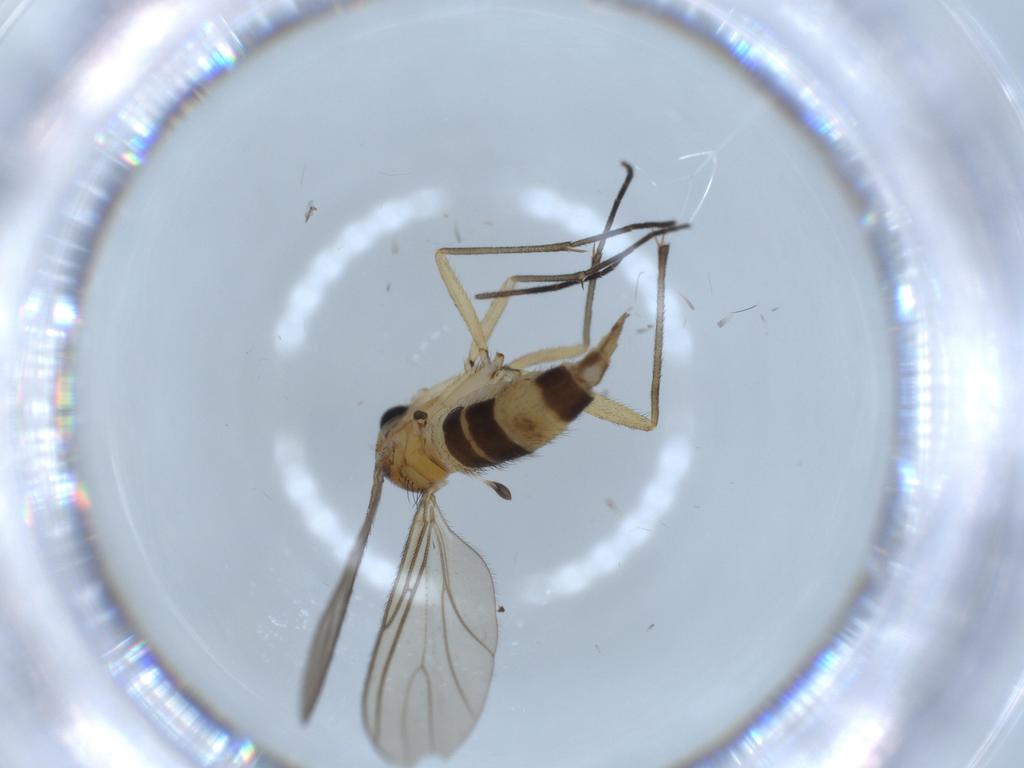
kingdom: Animalia
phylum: Arthropoda
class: Insecta
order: Diptera
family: Sciaridae
